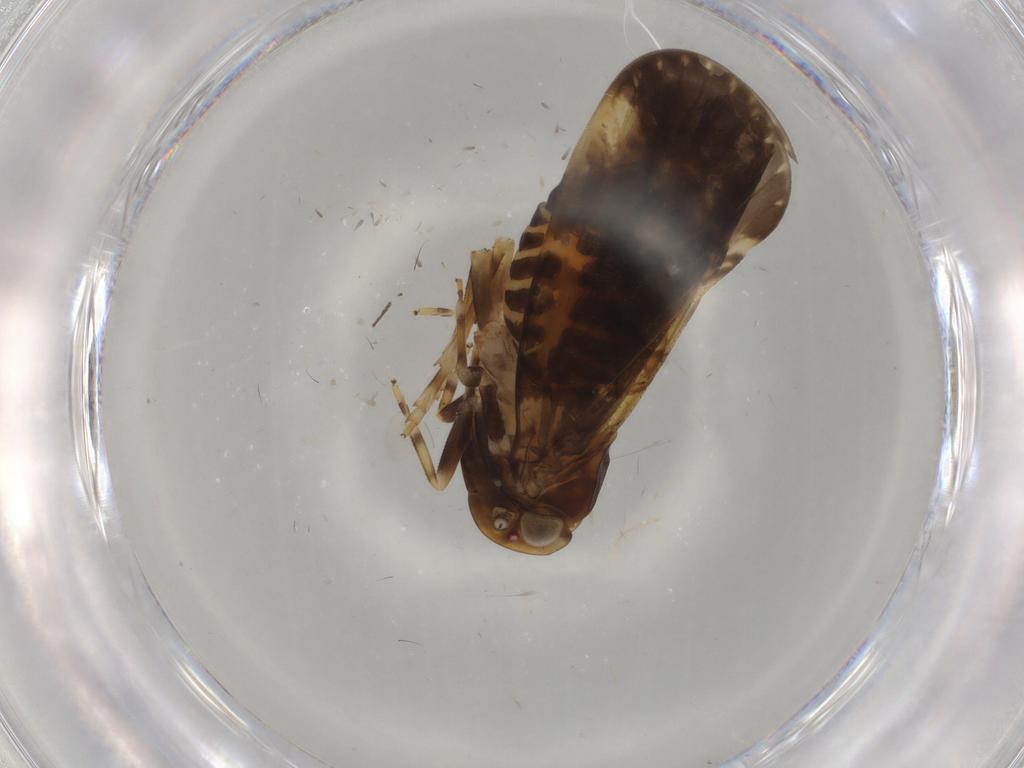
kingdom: Animalia
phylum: Arthropoda
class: Insecta
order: Hemiptera
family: Cixiidae
